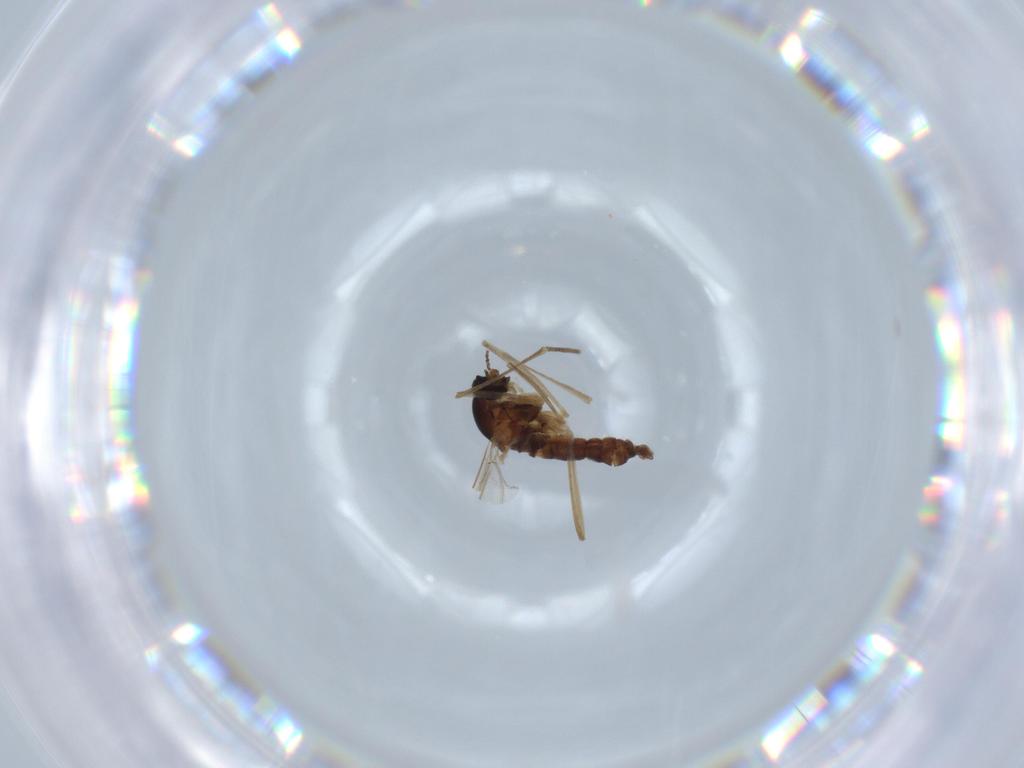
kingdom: Animalia
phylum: Arthropoda
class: Insecta
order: Diptera
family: Cecidomyiidae
